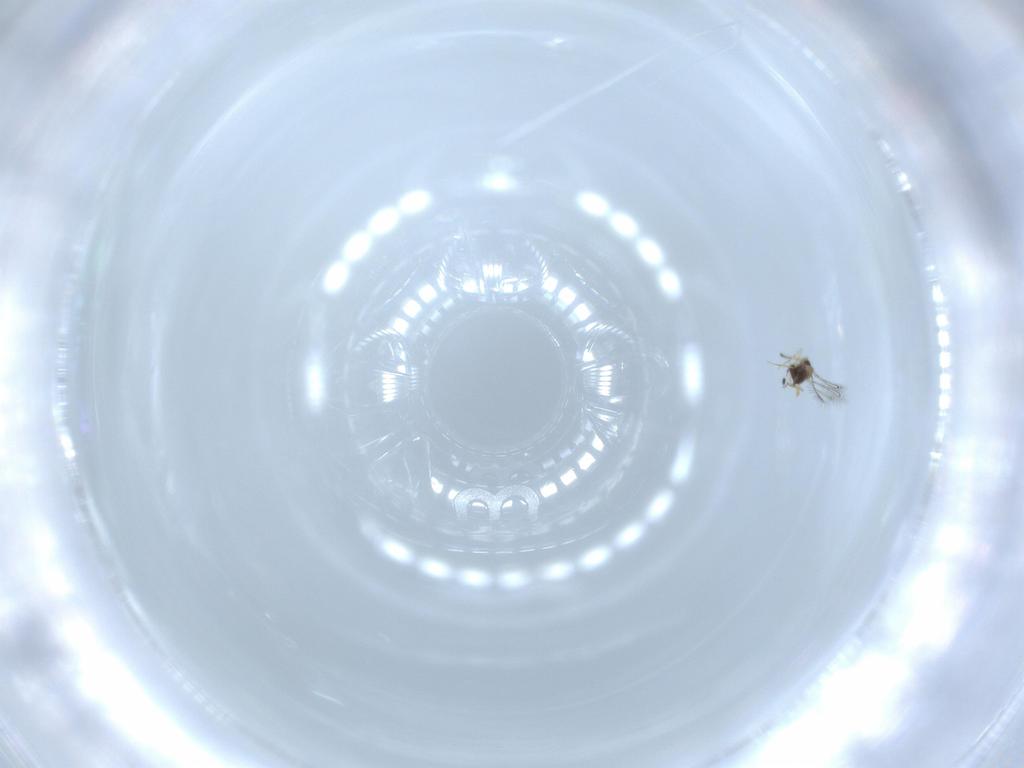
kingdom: Animalia
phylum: Arthropoda
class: Insecta
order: Hymenoptera
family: Mymaridae
